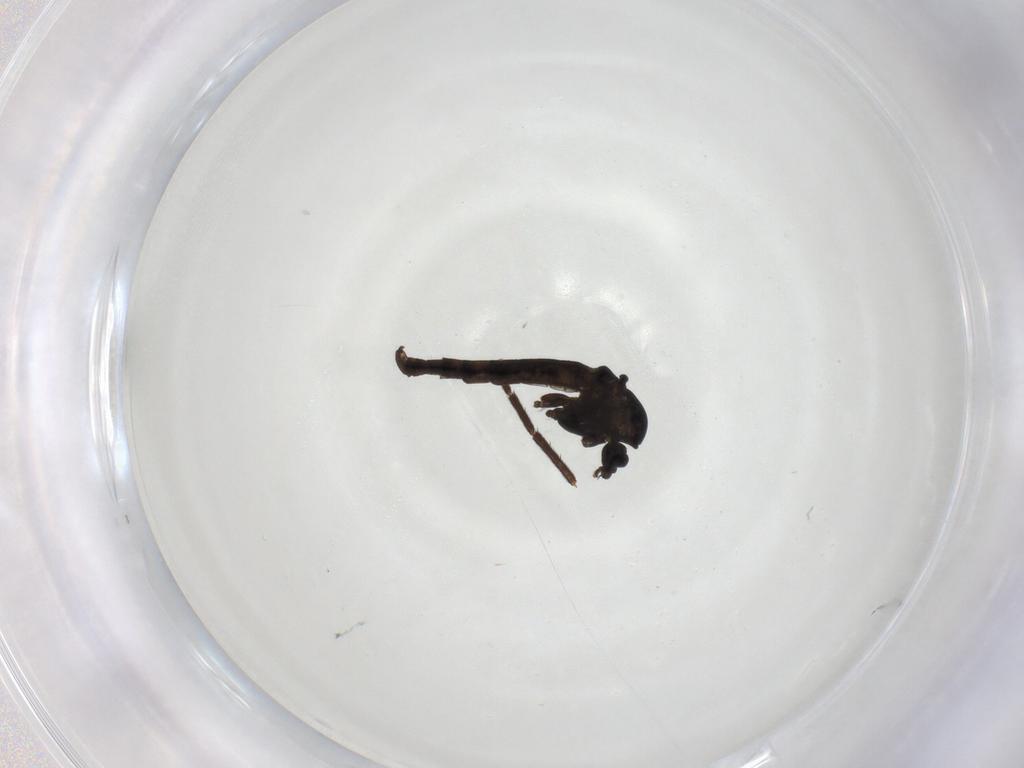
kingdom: Animalia
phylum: Arthropoda
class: Insecta
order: Diptera
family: Chironomidae
